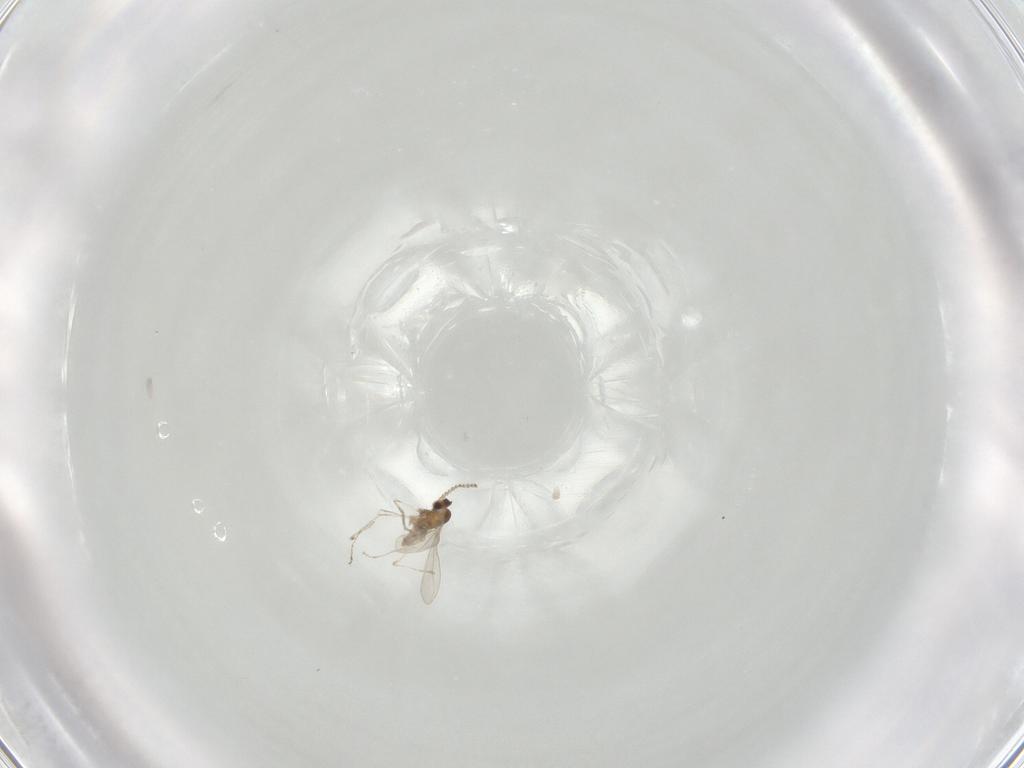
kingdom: Animalia
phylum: Arthropoda
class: Insecta
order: Diptera
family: Cecidomyiidae
